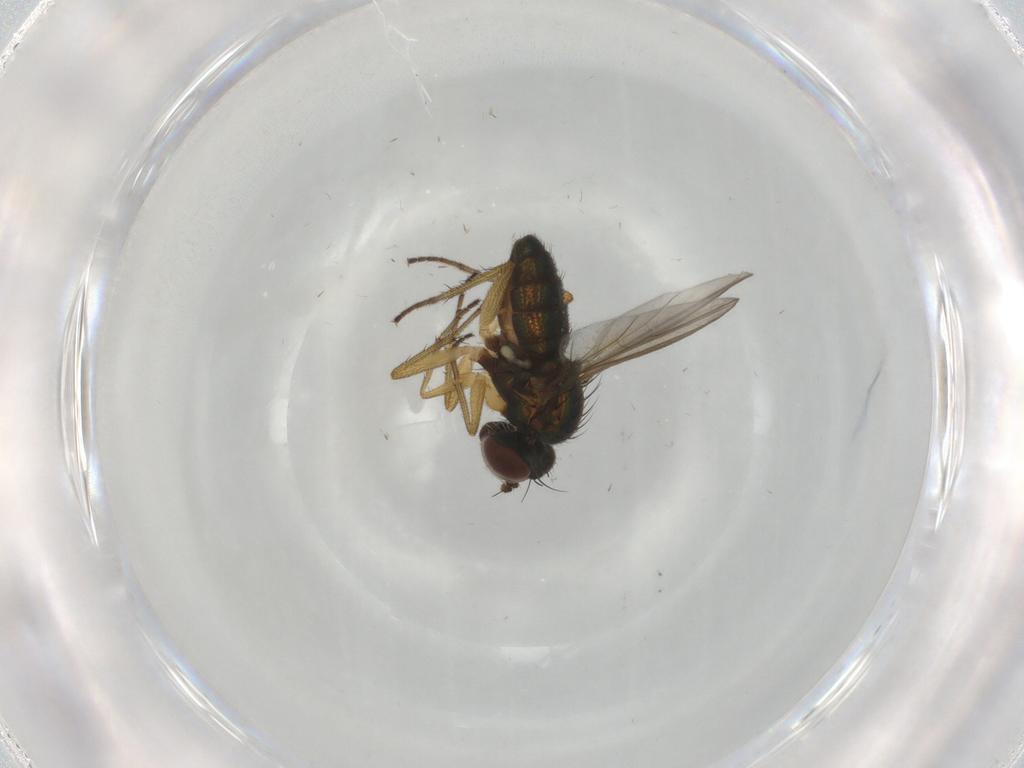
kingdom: Animalia
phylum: Arthropoda
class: Insecta
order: Diptera
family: Dolichopodidae
